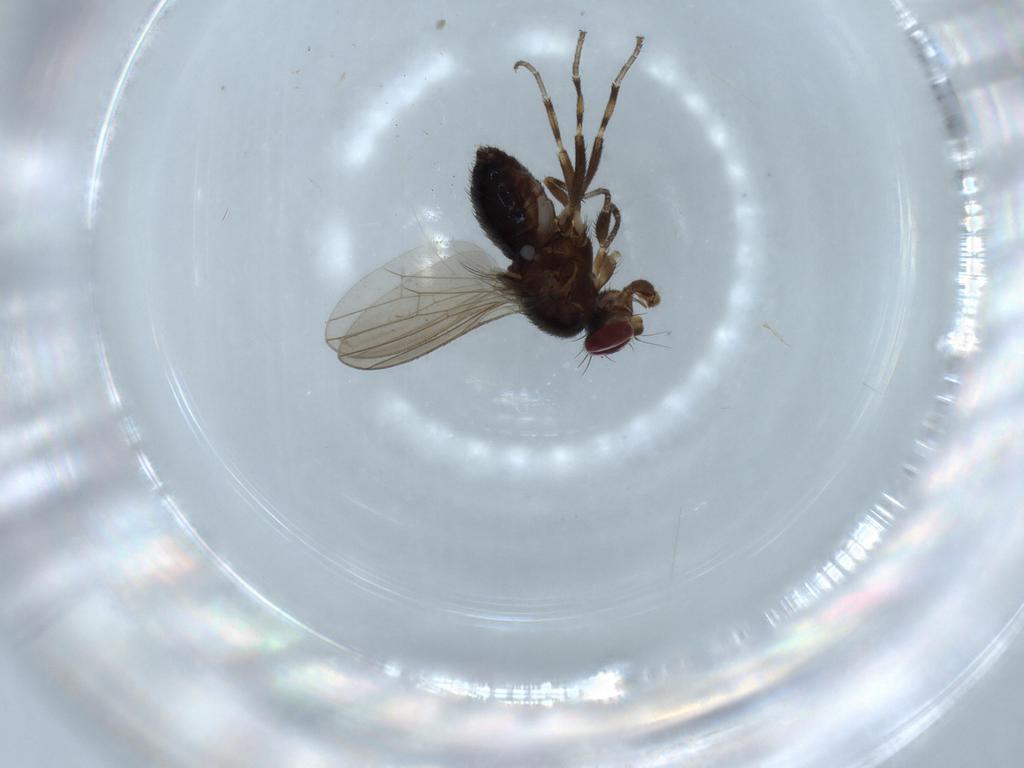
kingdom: Animalia
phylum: Arthropoda
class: Insecta
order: Diptera
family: Heleomyzidae
